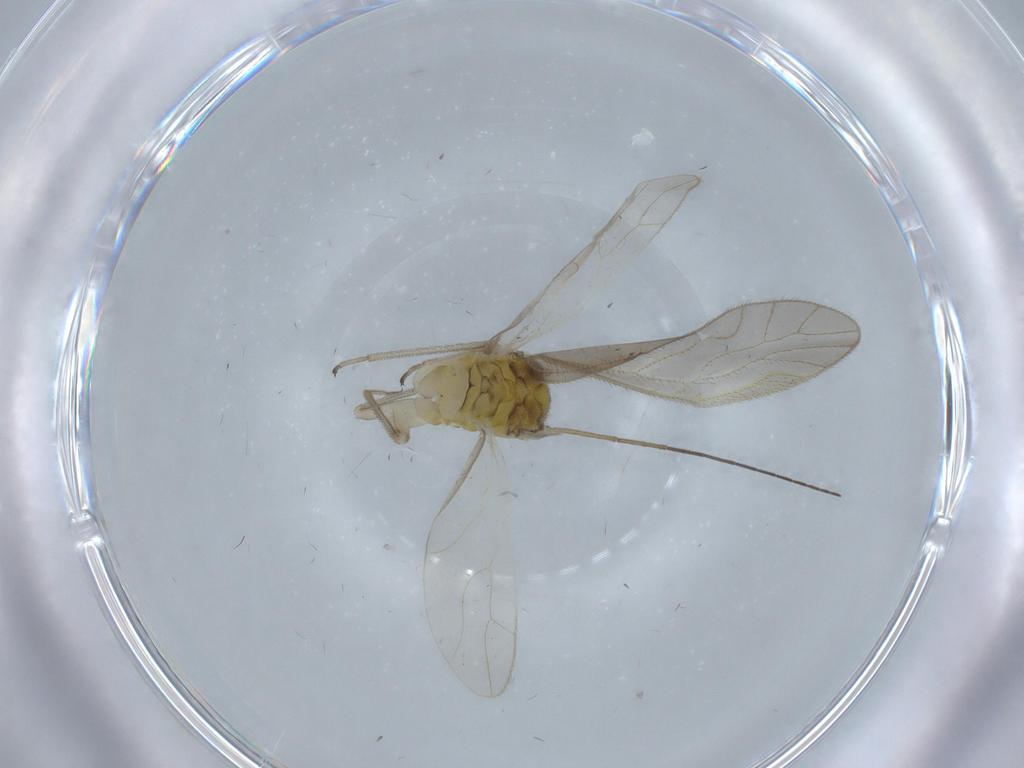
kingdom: Animalia
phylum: Arthropoda
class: Insecta
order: Psocodea
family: Caeciliusidae
